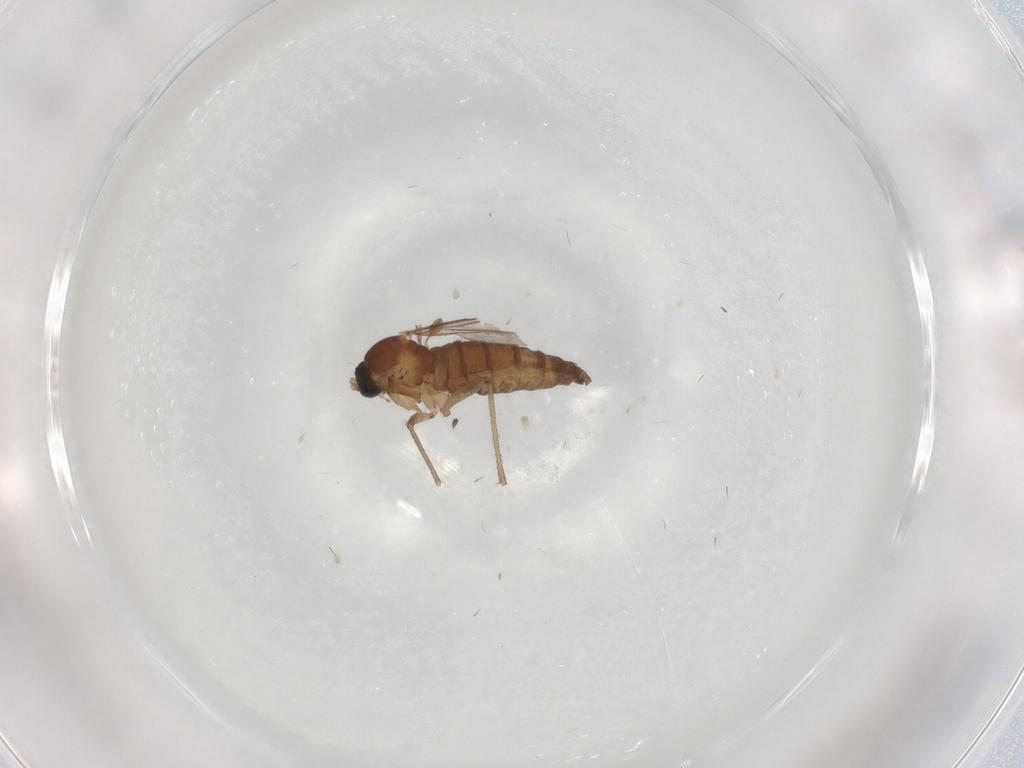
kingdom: Animalia
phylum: Arthropoda
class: Insecta
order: Diptera
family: Sciaridae
